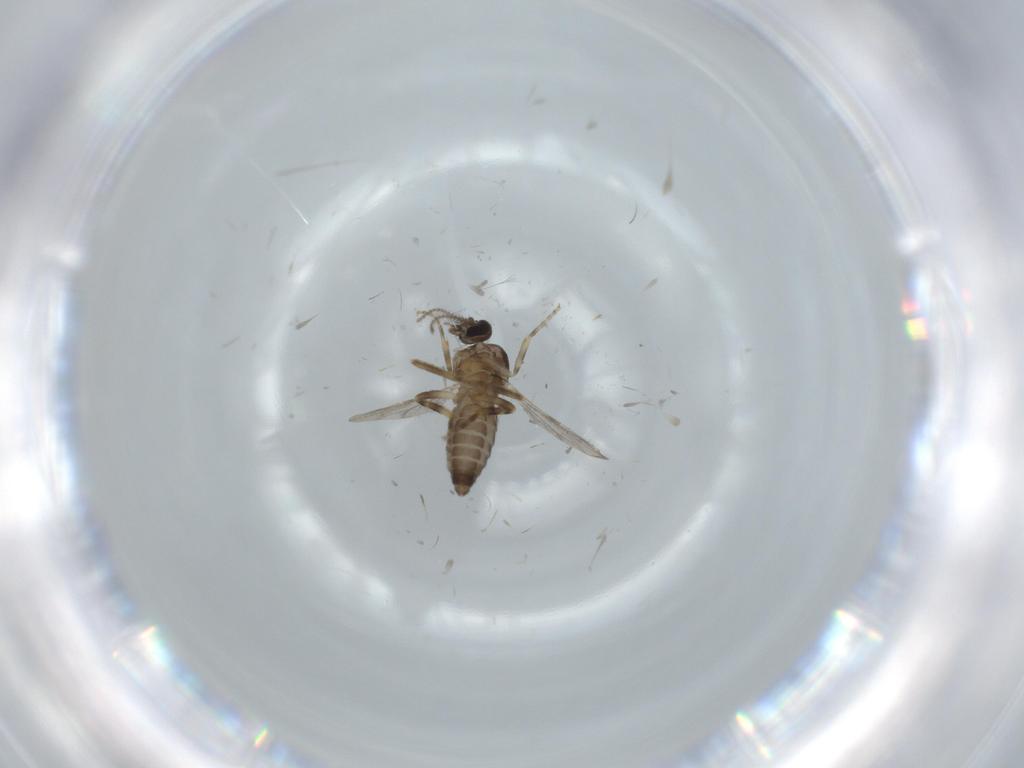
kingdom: Animalia
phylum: Arthropoda
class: Insecta
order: Diptera
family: Ceratopogonidae
